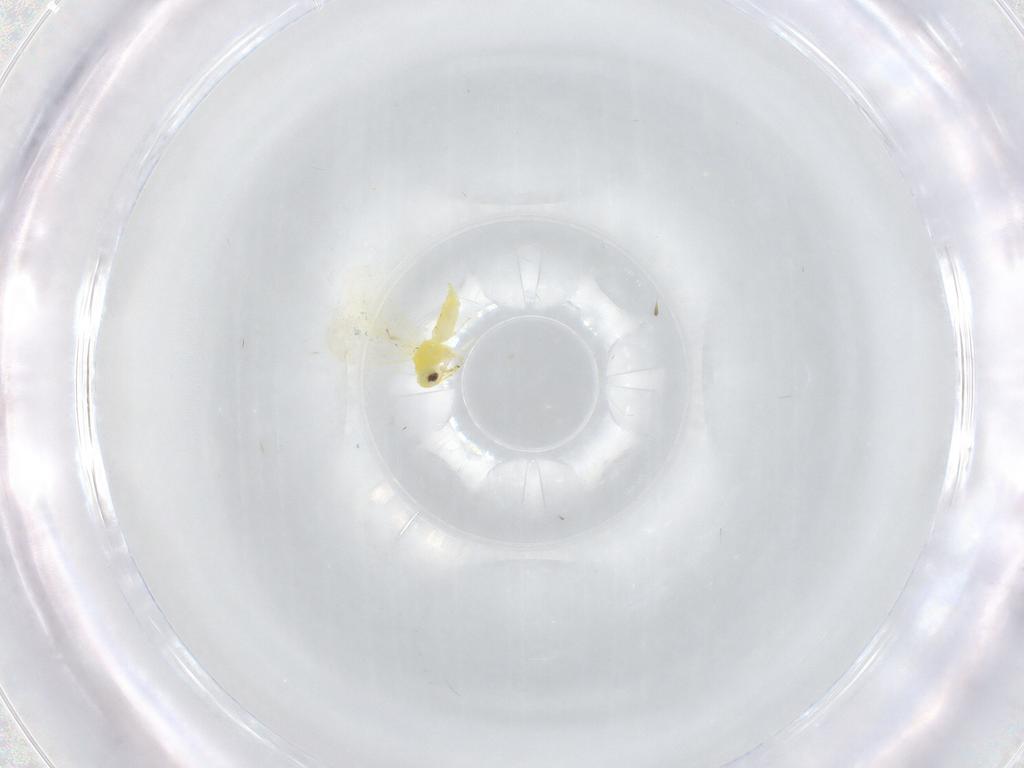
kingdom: Animalia
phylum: Arthropoda
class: Insecta
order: Hemiptera
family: Aleyrodidae
